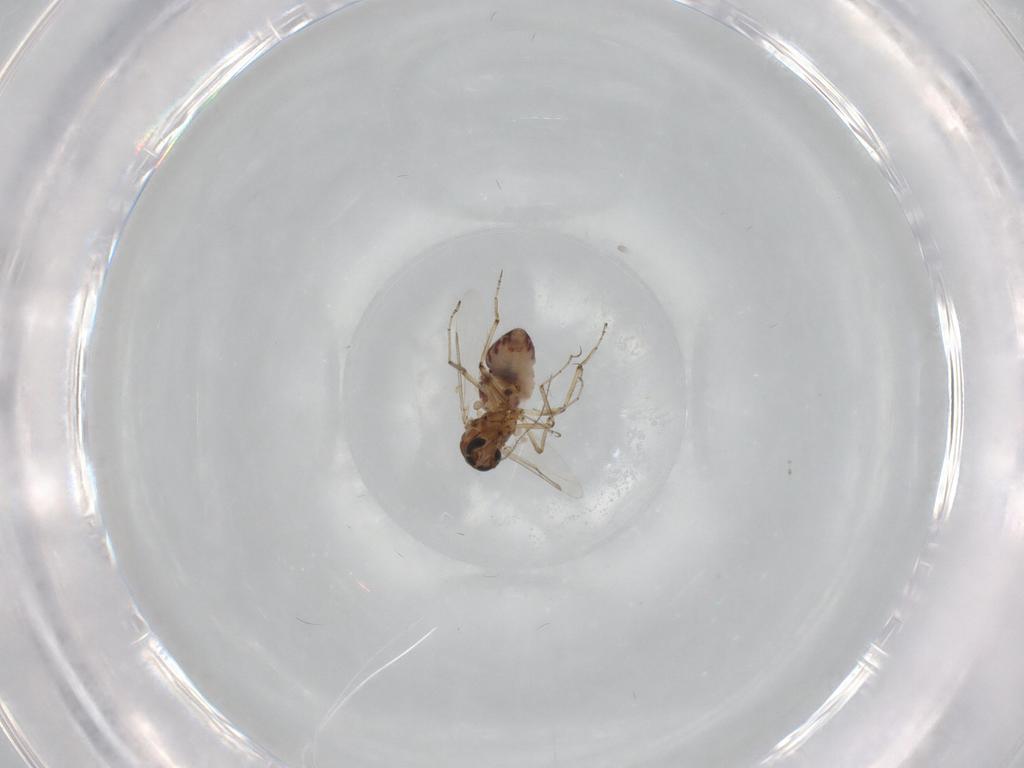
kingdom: Animalia
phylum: Arthropoda
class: Insecta
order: Diptera
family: Chironomidae
